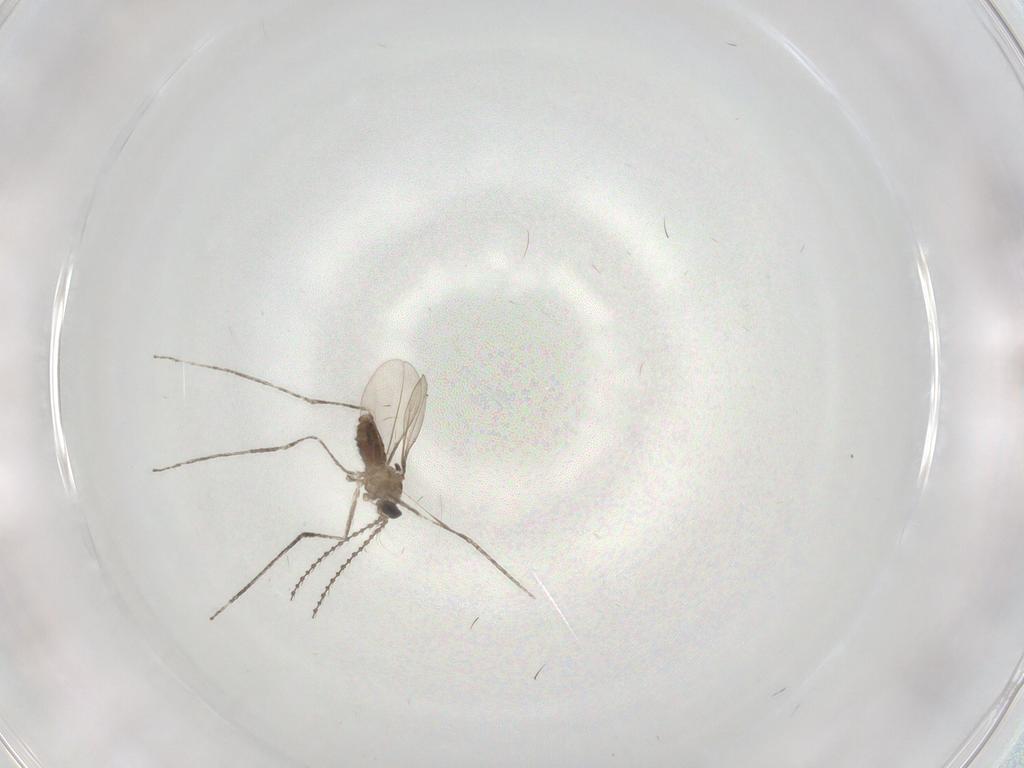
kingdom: Animalia
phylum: Arthropoda
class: Insecta
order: Diptera
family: Cecidomyiidae
